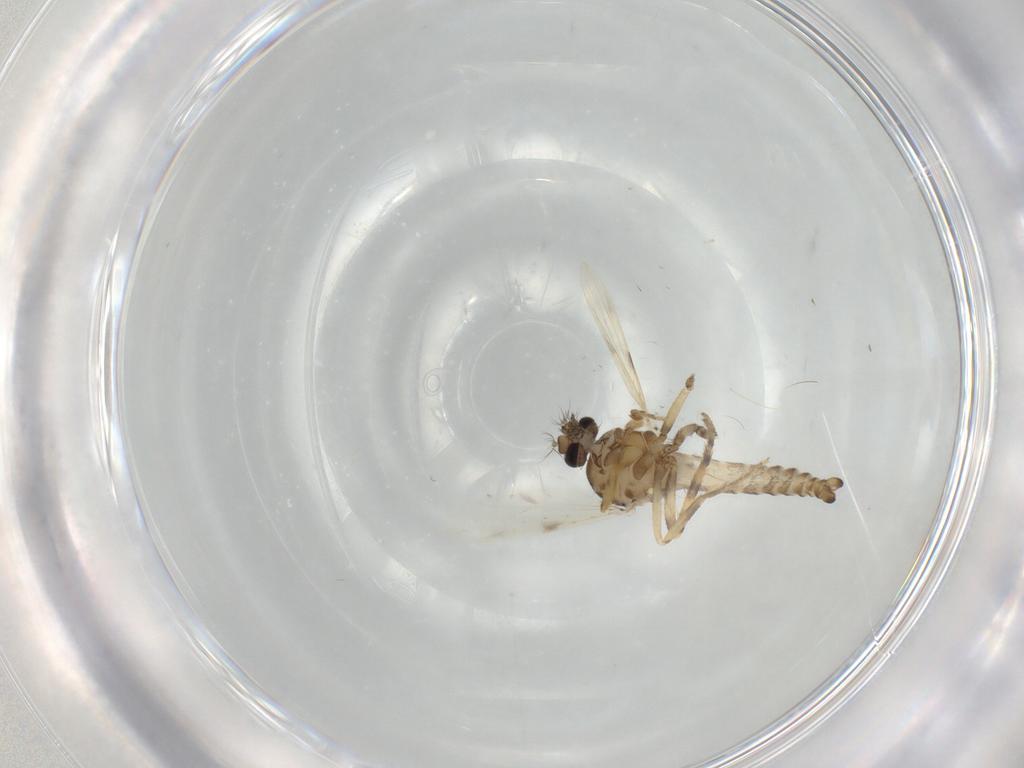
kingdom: Animalia
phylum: Arthropoda
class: Insecta
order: Diptera
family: Ceratopogonidae
